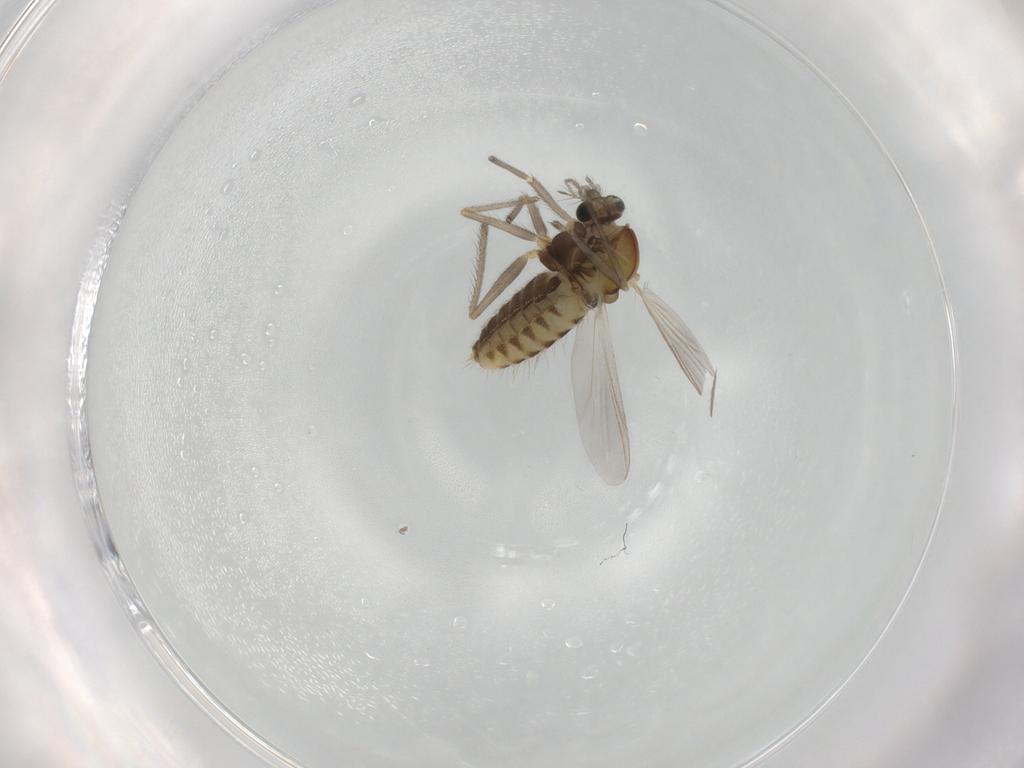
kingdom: Animalia
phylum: Arthropoda
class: Insecta
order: Diptera
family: Chironomidae
